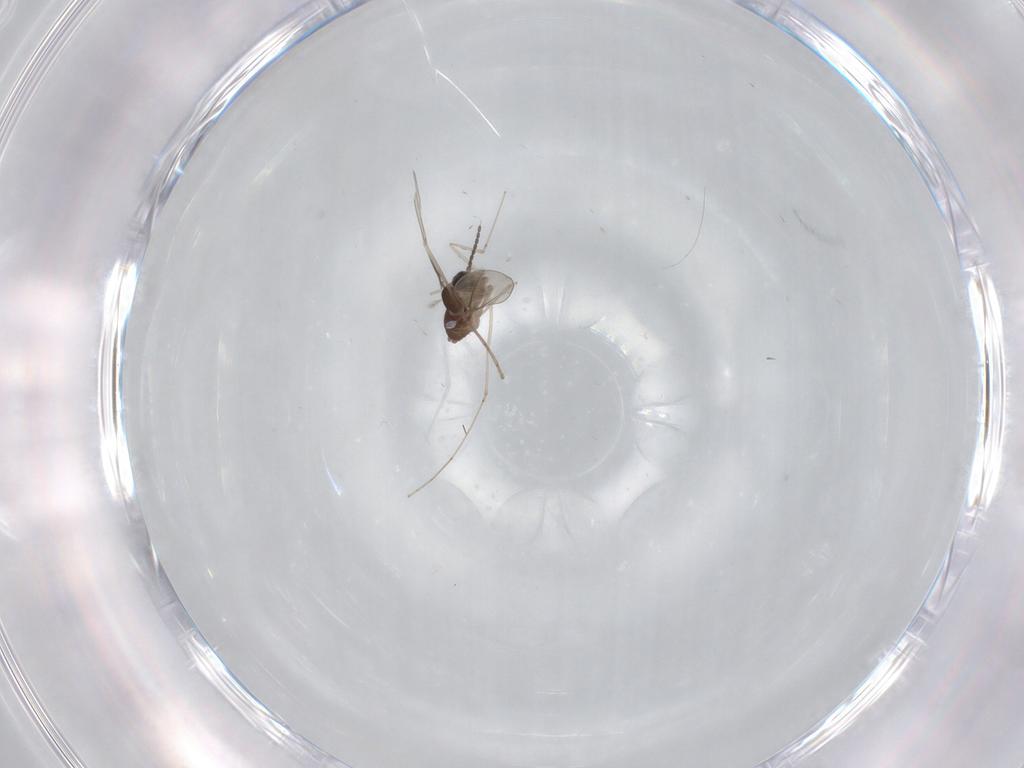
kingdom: Animalia
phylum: Arthropoda
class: Insecta
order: Diptera
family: Cecidomyiidae
